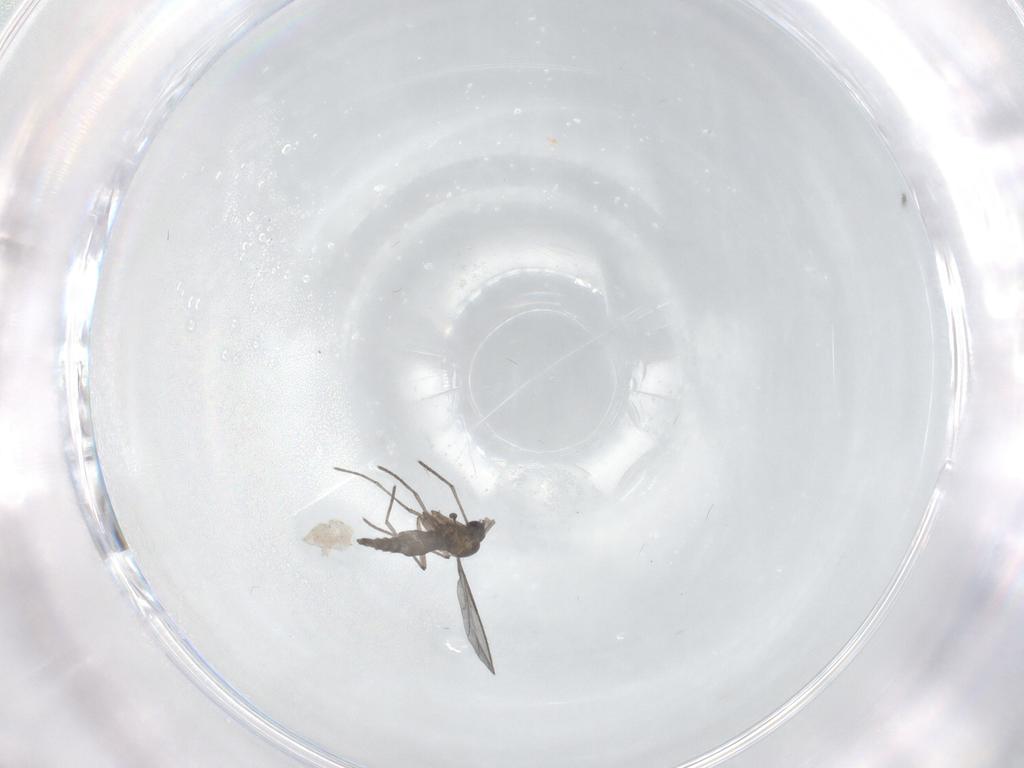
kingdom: Animalia
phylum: Arthropoda
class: Insecta
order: Diptera
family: Sciaridae
